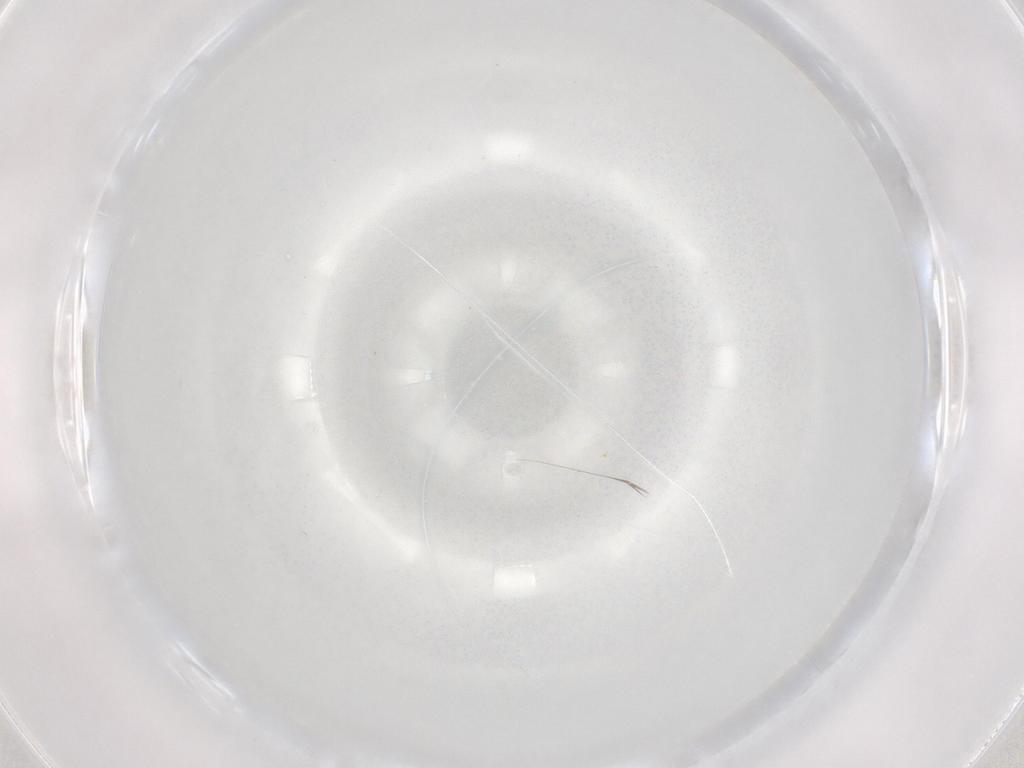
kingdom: Animalia
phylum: Arthropoda
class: Insecta
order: Diptera
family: Cecidomyiidae
